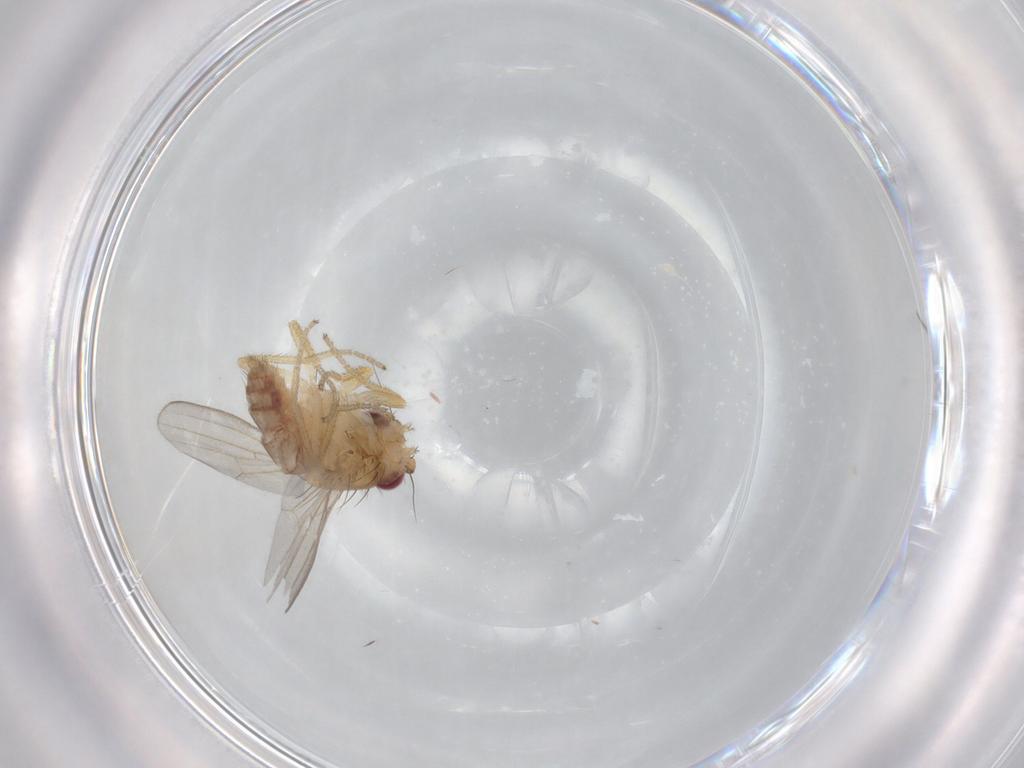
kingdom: Animalia
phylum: Arthropoda
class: Insecta
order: Diptera
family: Milichiidae
